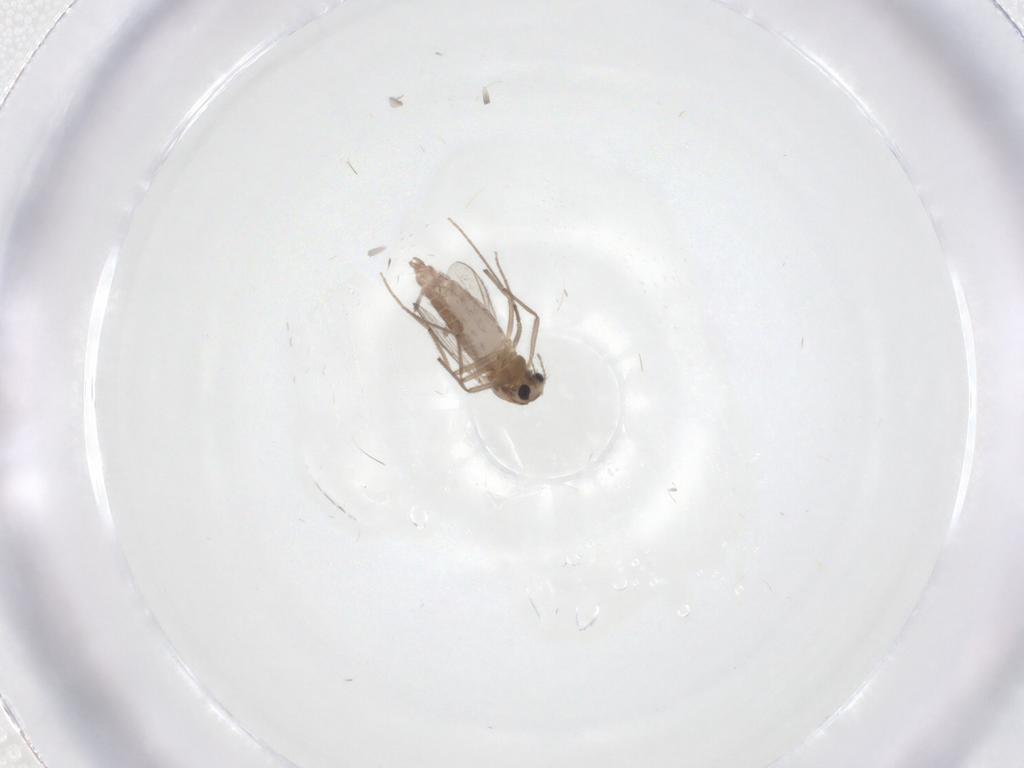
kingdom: Animalia
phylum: Arthropoda
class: Insecta
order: Diptera
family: Chironomidae
